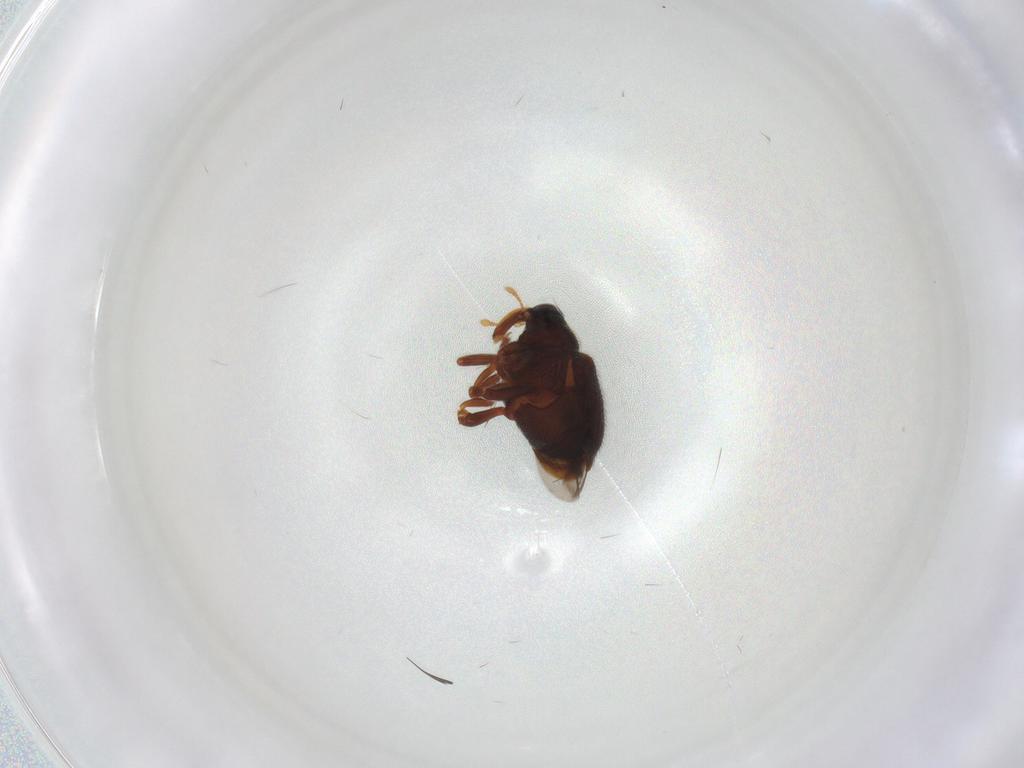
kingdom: Animalia
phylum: Arthropoda
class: Insecta
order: Coleoptera
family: Curculionidae
